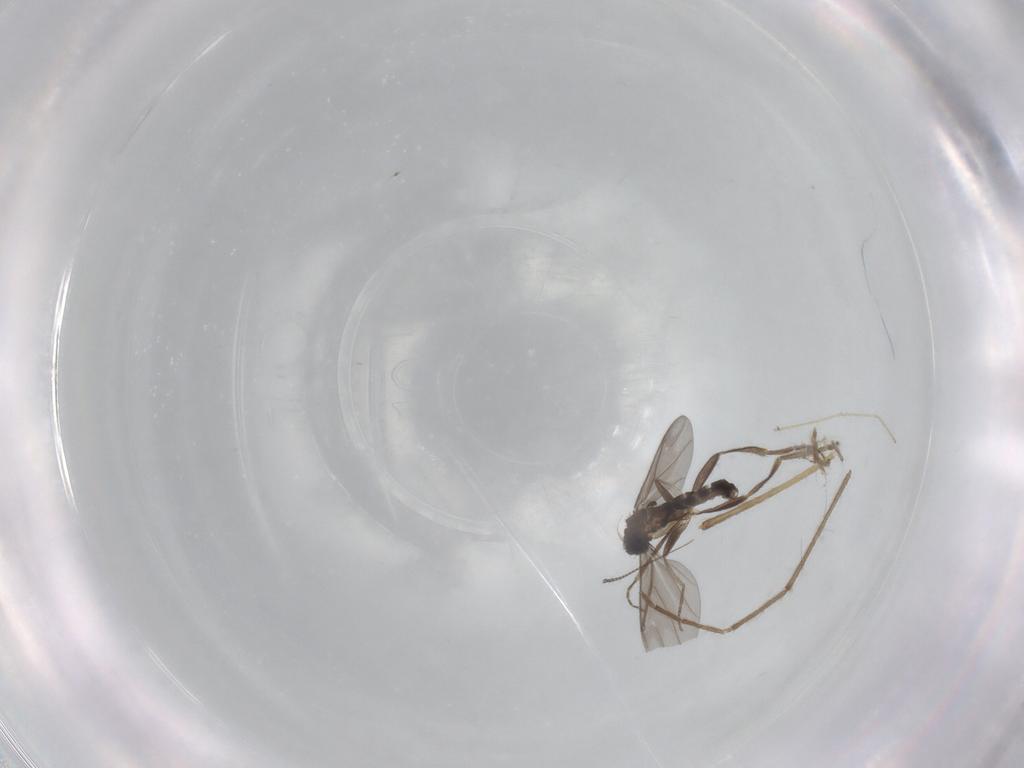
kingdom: Animalia
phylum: Arthropoda
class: Insecta
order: Diptera
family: Chironomidae
